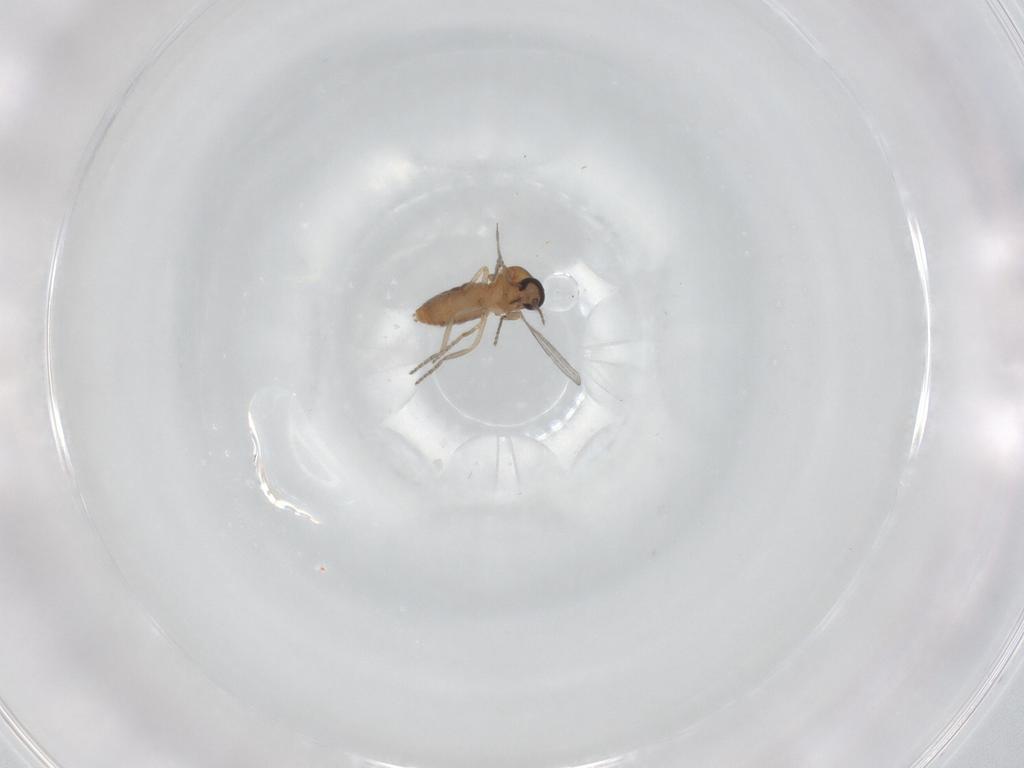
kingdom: Animalia
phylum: Arthropoda
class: Insecta
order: Diptera
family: Ceratopogonidae
